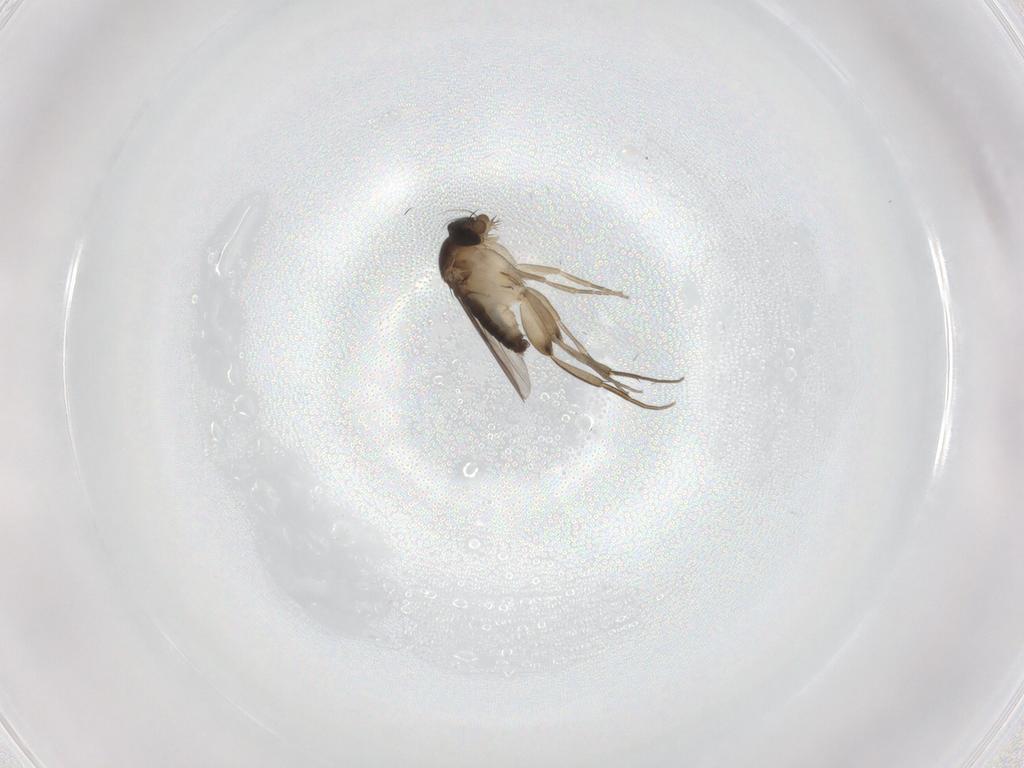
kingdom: Animalia
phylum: Arthropoda
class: Insecta
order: Diptera
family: Phoridae
